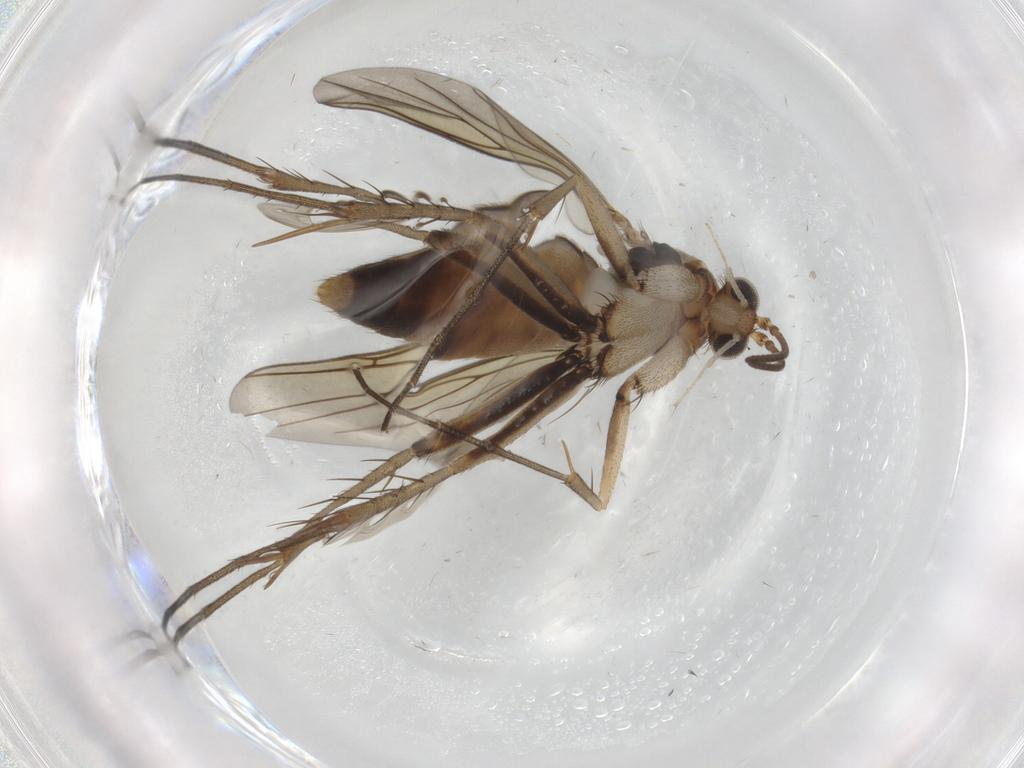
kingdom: Animalia
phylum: Arthropoda
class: Insecta
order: Diptera
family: Mycetophilidae
